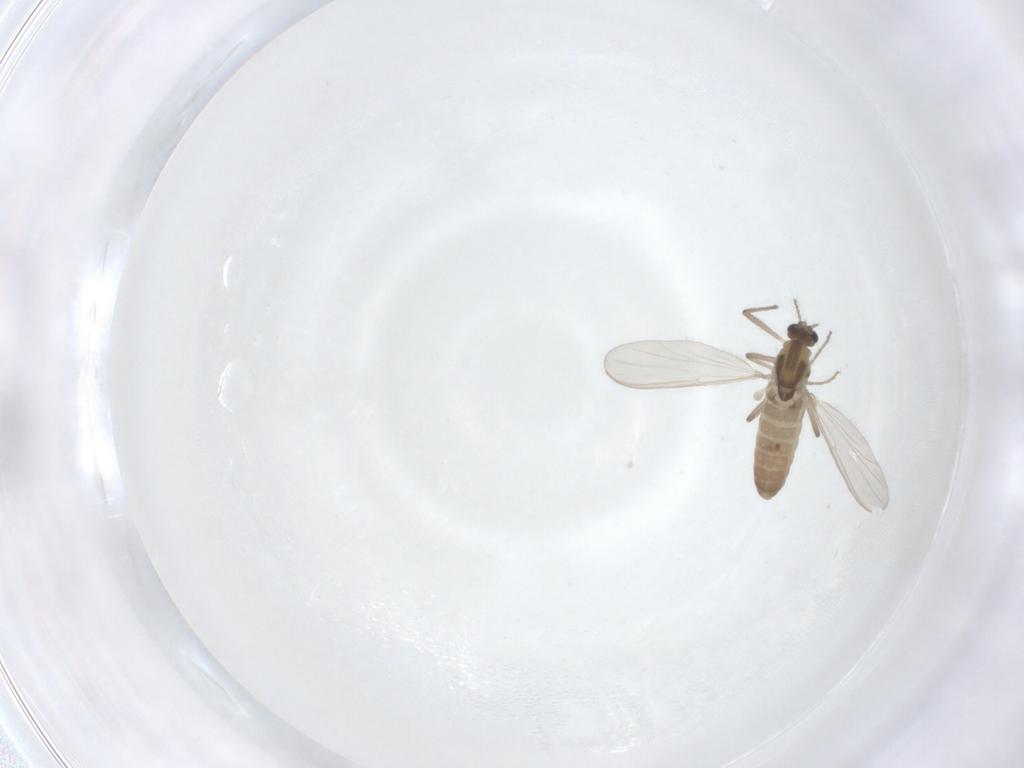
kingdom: Animalia
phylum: Arthropoda
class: Insecta
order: Diptera
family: Chironomidae
